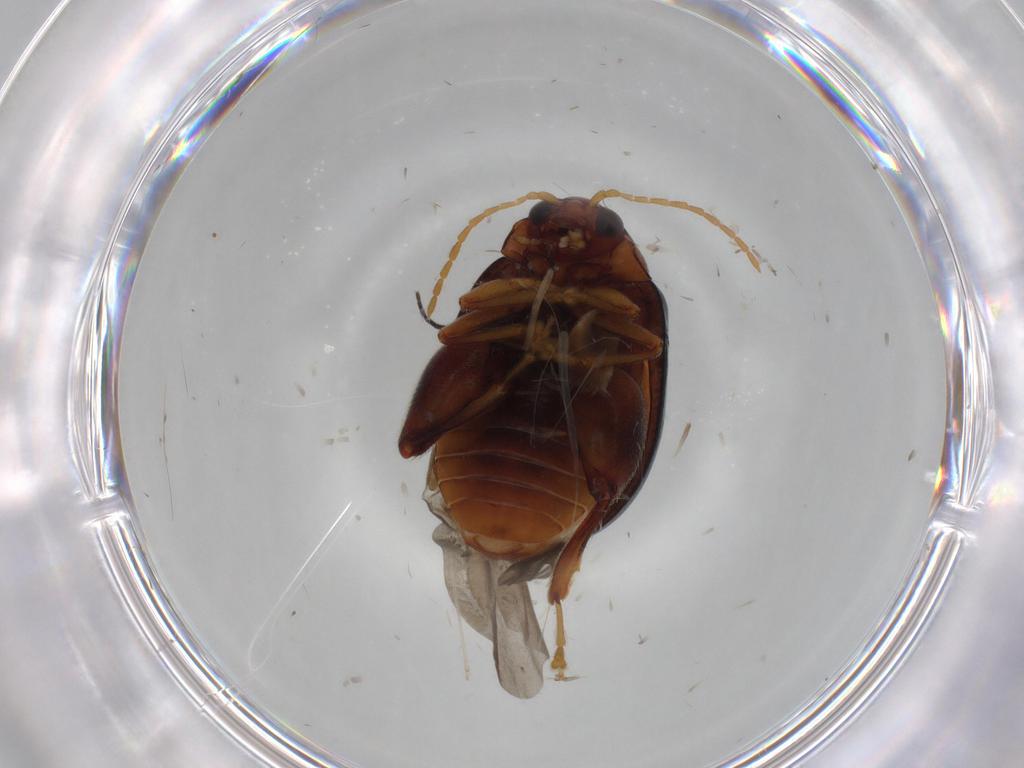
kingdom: Animalia
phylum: Arthropoda
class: Insecta
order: Coleoptera
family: Chrysomelidae
